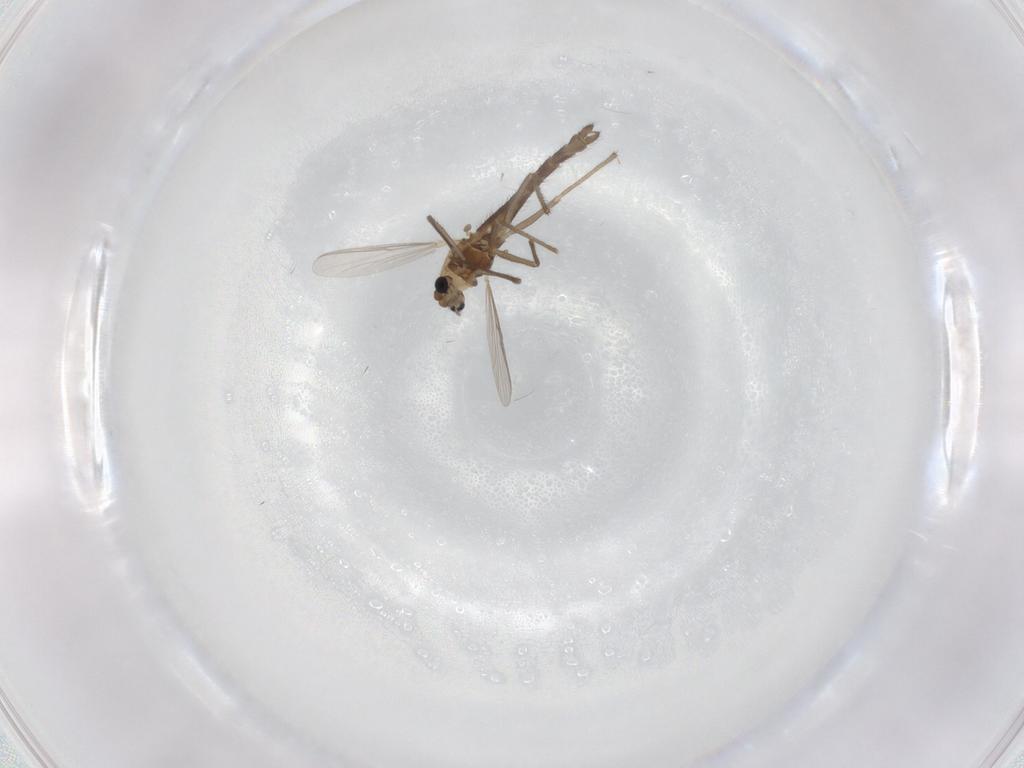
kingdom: Animalia
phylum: Arthropoda
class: Insecta
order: Diptera
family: Chironomidae
